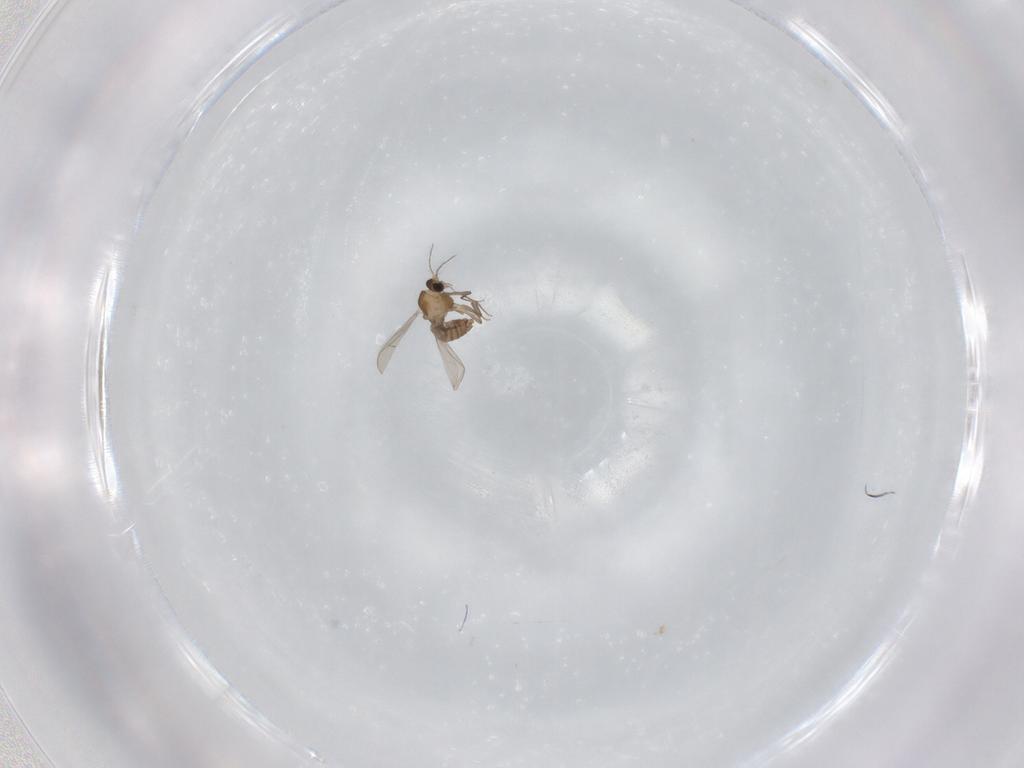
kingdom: Animalia
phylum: Arthropoda
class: Insecta
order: Diptera
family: Chironomidae
